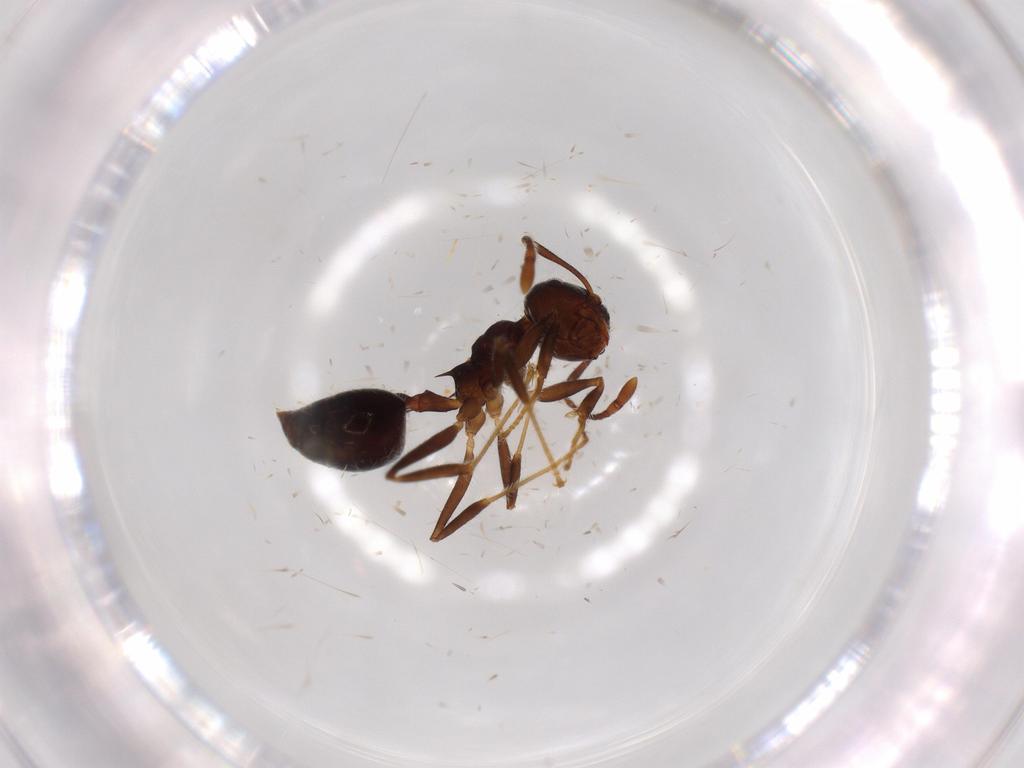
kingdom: Animalia
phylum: Arthropoda
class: Insecta
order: Hymenoptera
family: Formicidae
